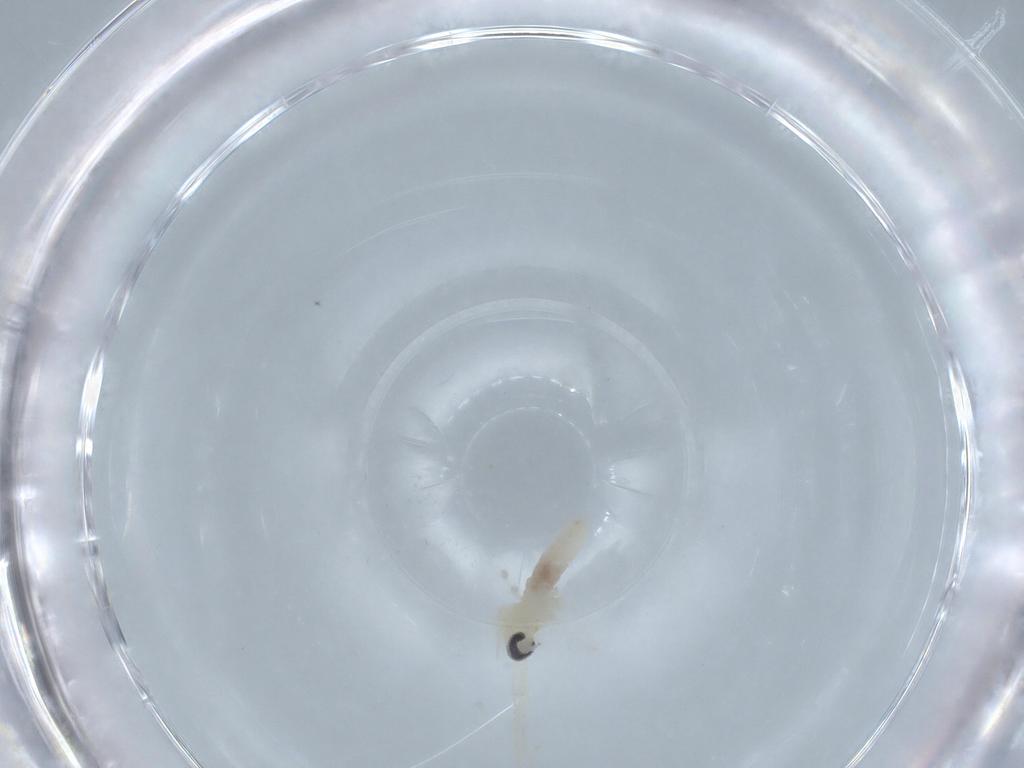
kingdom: Animalia
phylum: Arthropoda
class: Insecta
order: Diptera
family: Cecidomyiidae
